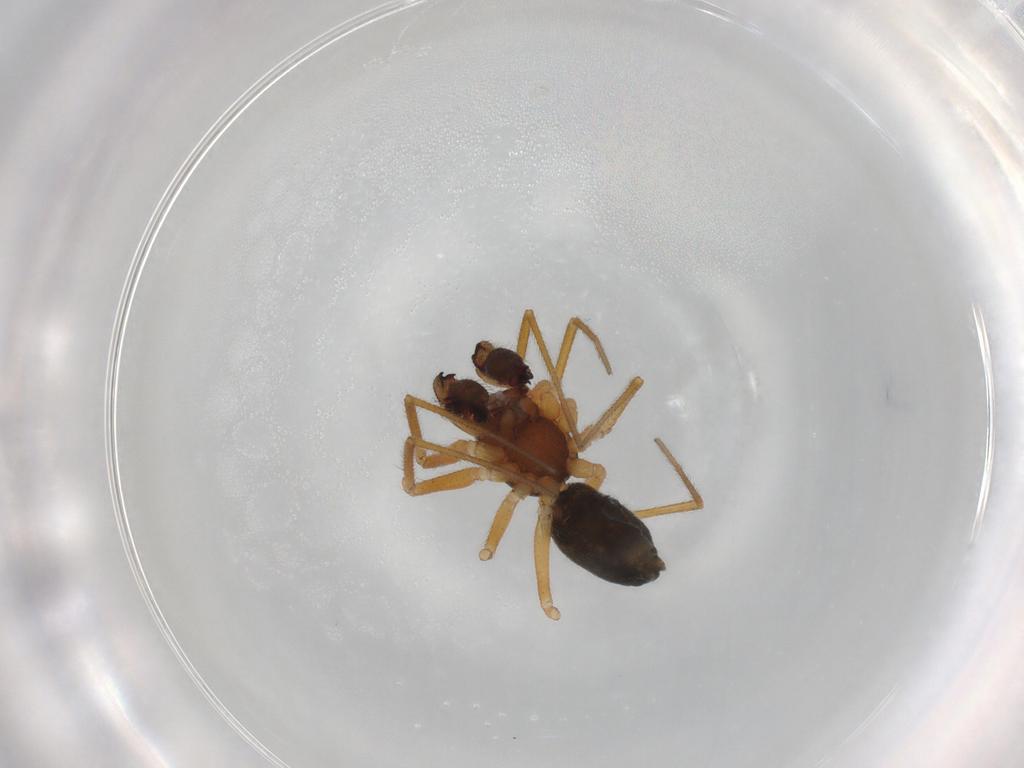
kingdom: Animalia
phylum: Arthropoda
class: Arachnida
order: Araneae
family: Linyphiidae
